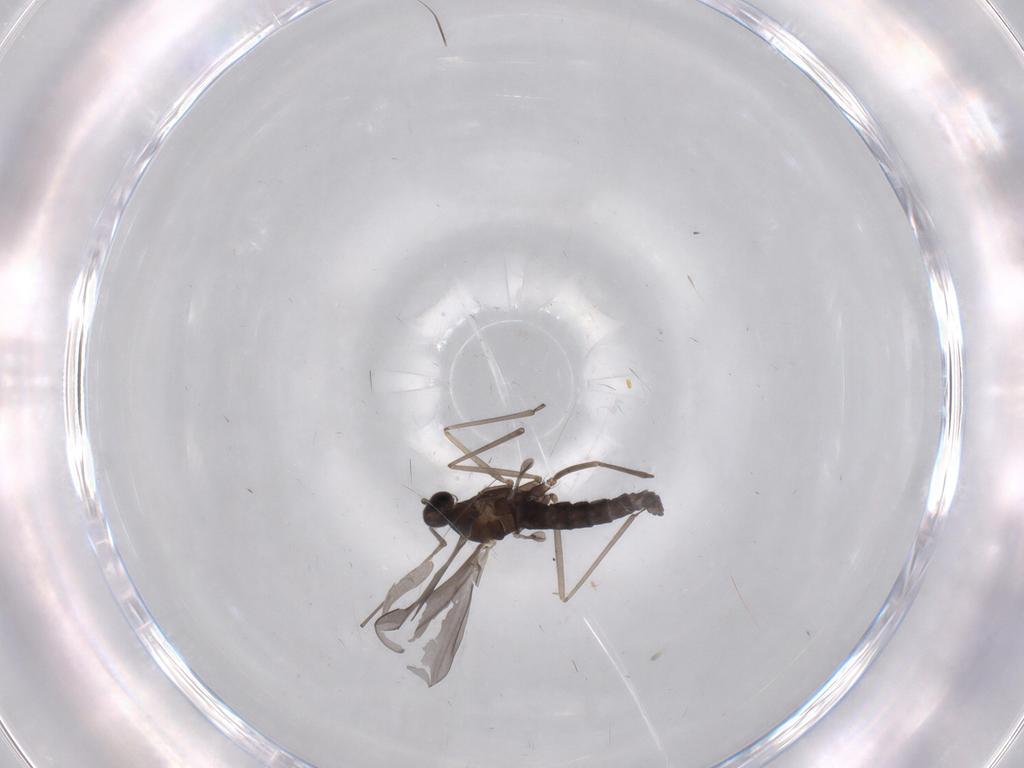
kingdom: Animalia
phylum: Arthropoda
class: Insecta
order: Diptera
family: Cecidomyiidae
